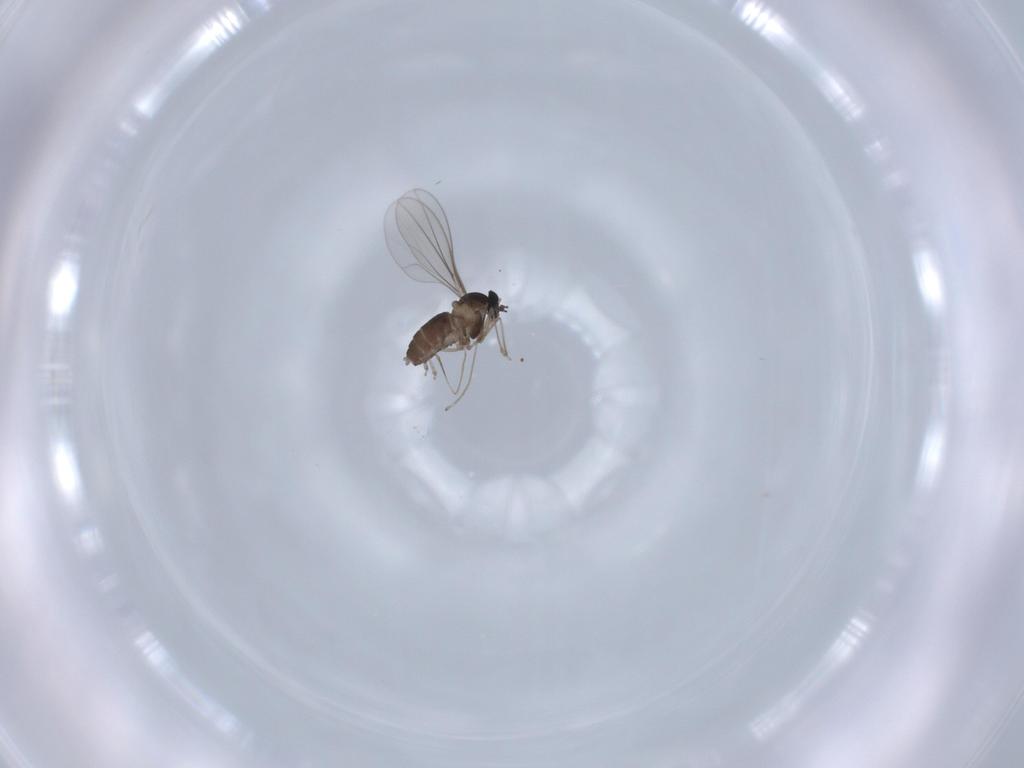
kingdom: Animalia
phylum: Arthropoda
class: Insecta
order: Diptera
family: Cecidomyiidae
